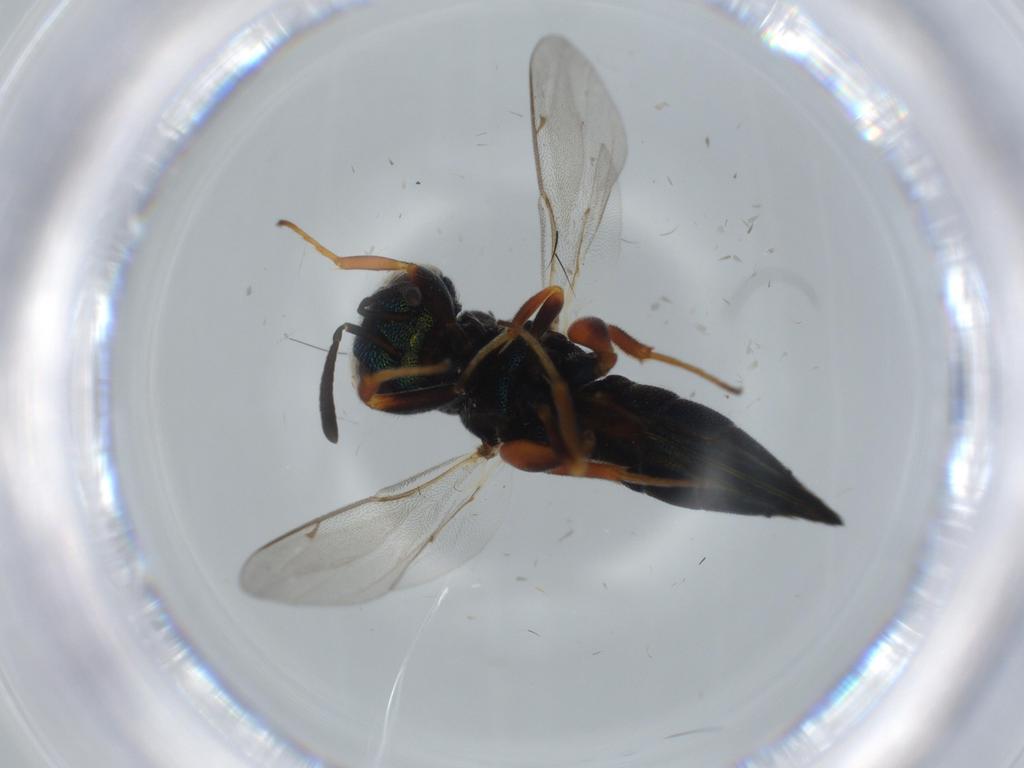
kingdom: Animalia
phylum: Arthropoda
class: Insecta
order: Hymenoptera
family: Lyciscidae
